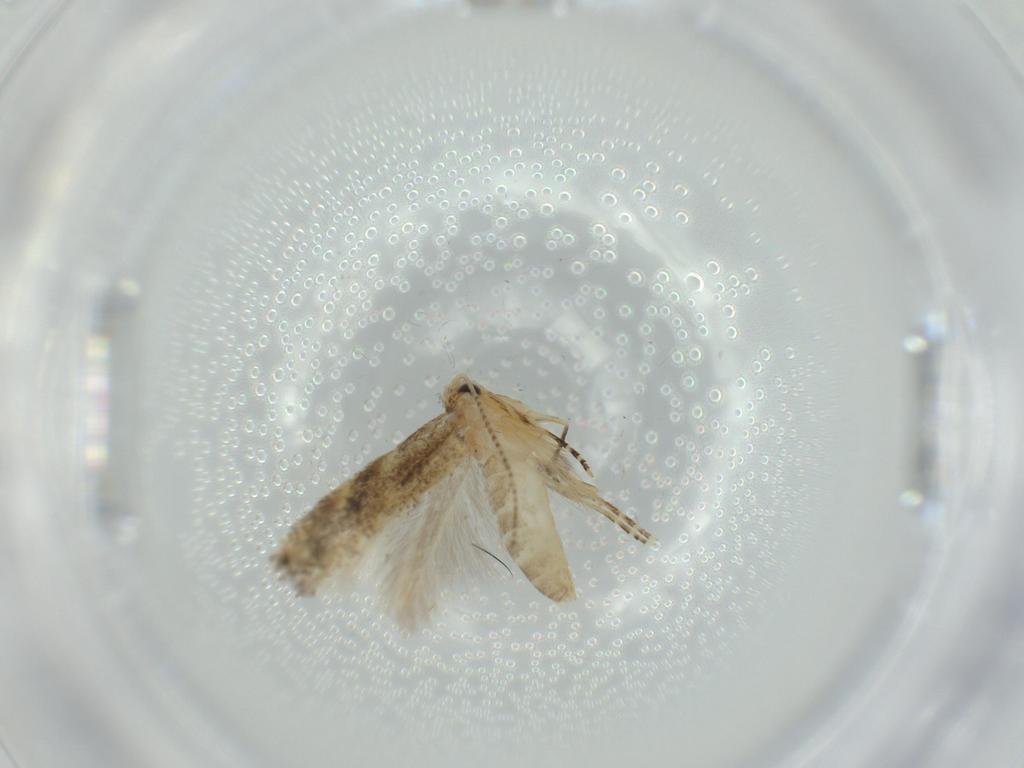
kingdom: Animalia
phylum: Arthropoda
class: Insecta
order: Lepidoptera
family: Bucculatricidae
